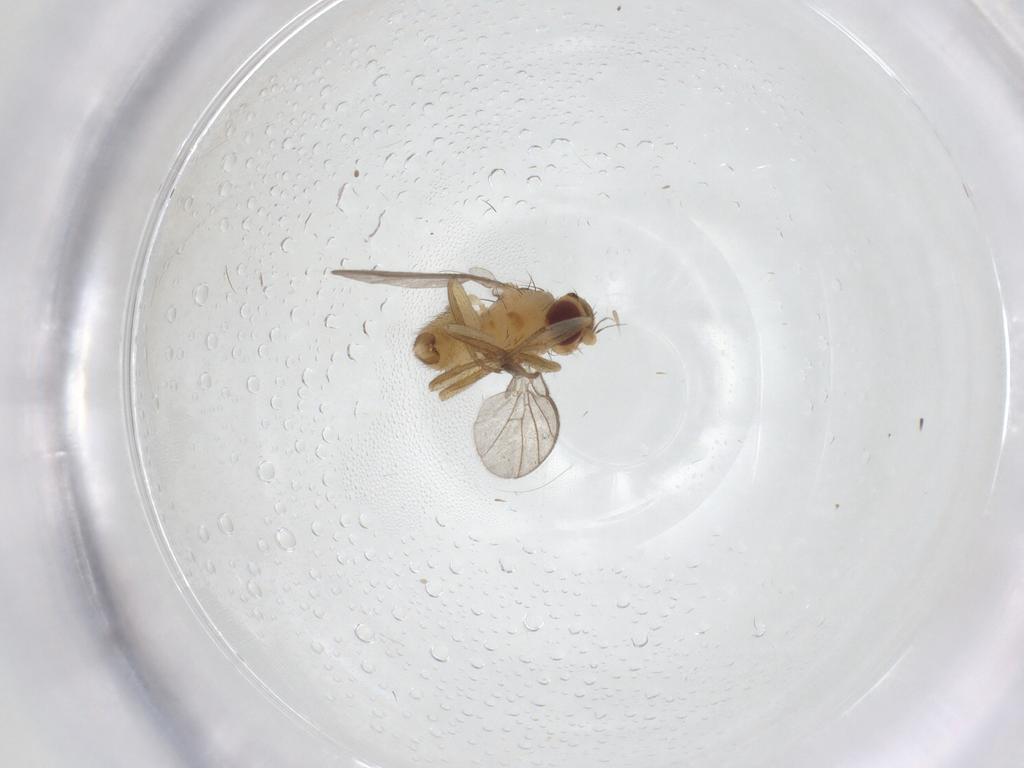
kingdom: Animalia
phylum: Arthropoda
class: Insecta
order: Diptera
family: Agromyzidae
